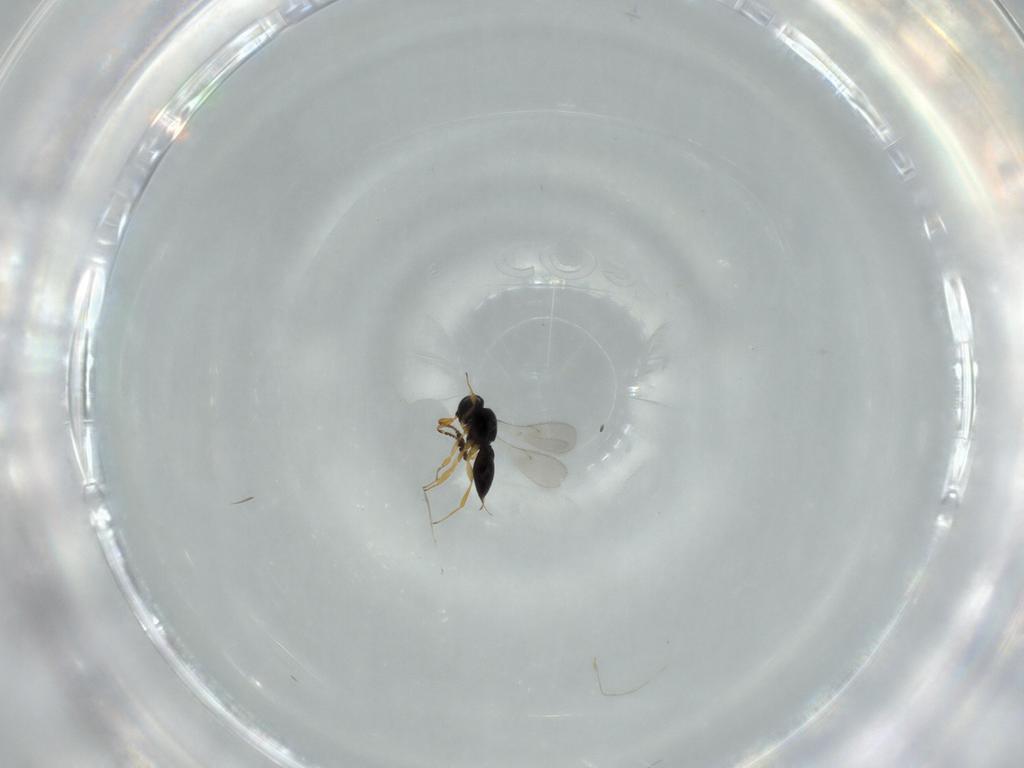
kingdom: Animalia
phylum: Arthropoda
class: Insecta
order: Hymenoptera
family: Scelionidae
